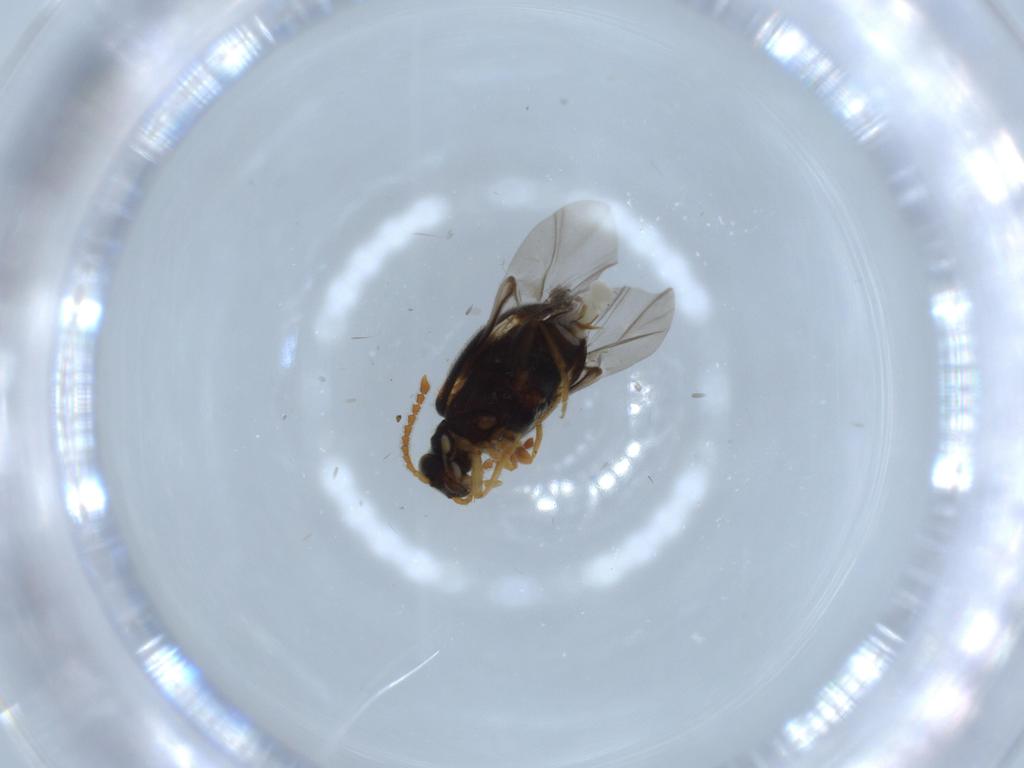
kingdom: Animalia
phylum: Arthropoda
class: Insecta
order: Coleoptera
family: Aderidae
